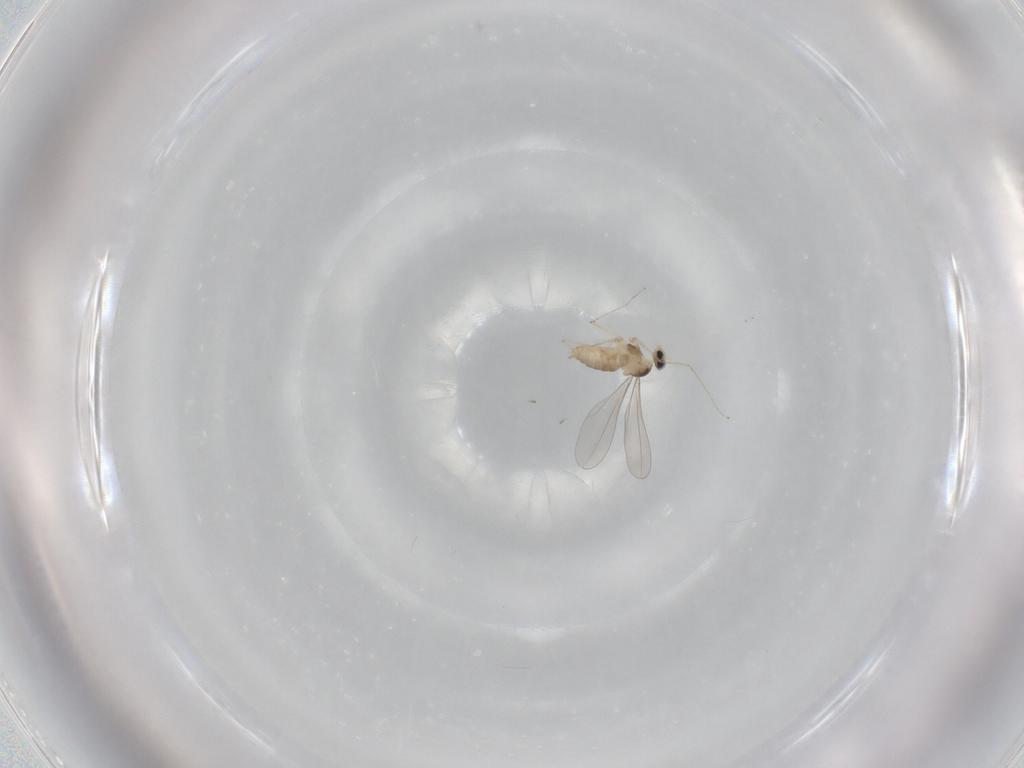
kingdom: Animalia
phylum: Arthropoda
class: Insecta
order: Diptera
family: Cecidomyiidae
